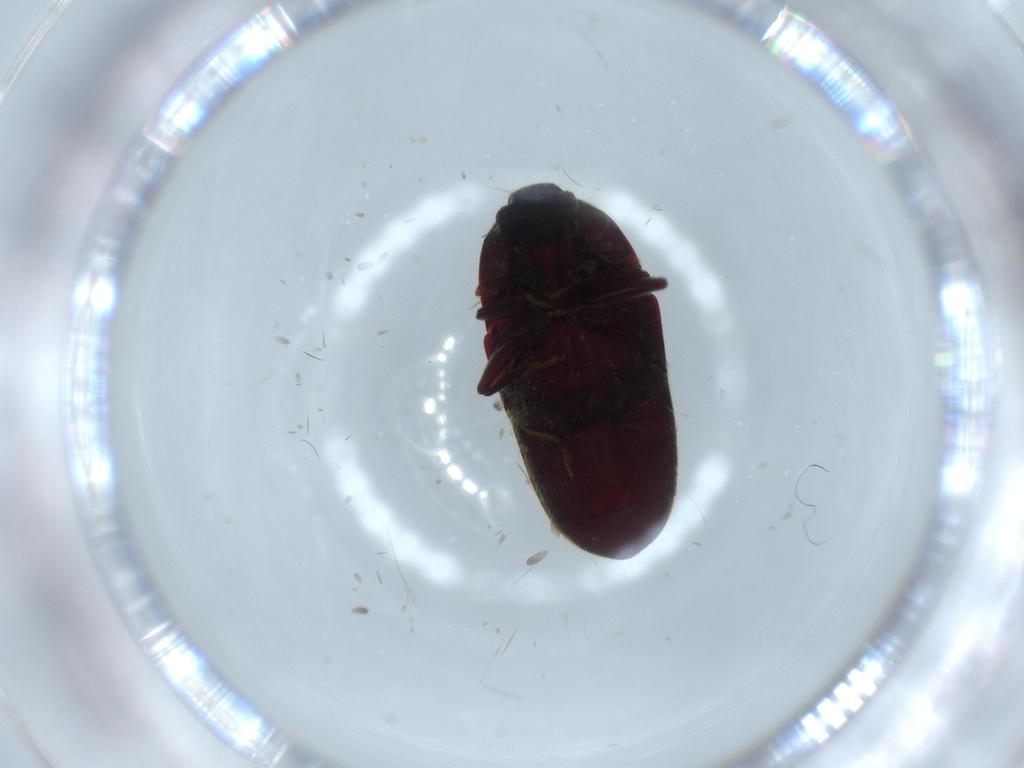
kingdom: Animalia
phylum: Arthropoda
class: Insecta
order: Coleoptera
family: Throscidae
